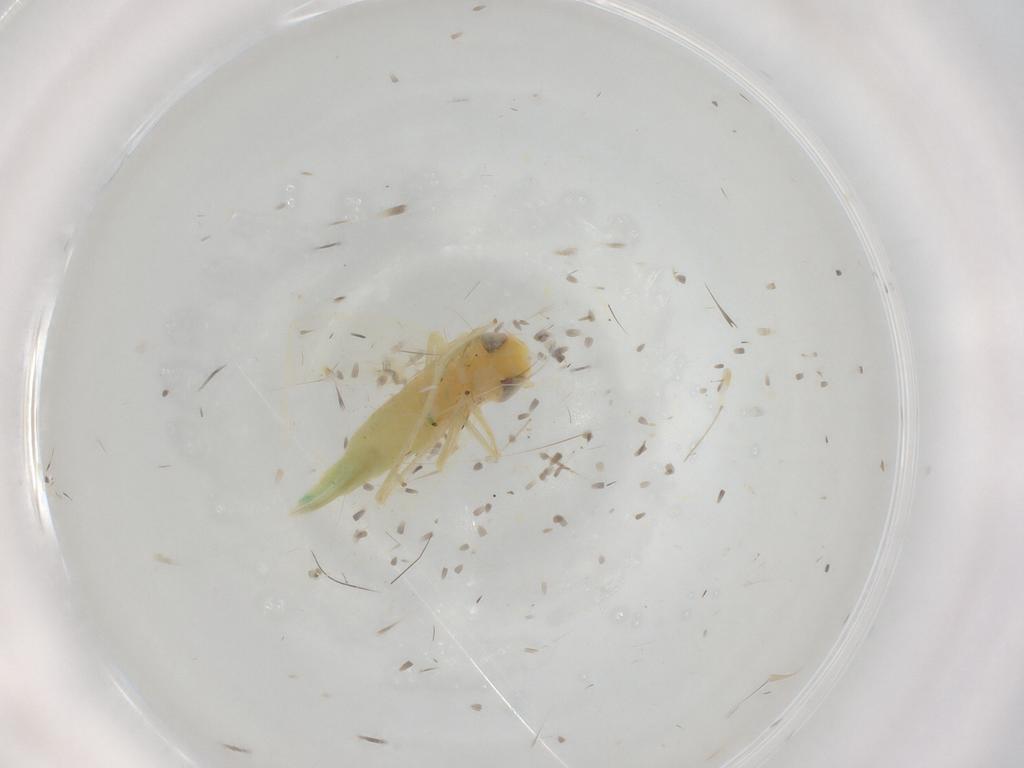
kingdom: Animalia
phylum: Arthropoda
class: Insecta
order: Hemiptera
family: Cicadellidae
